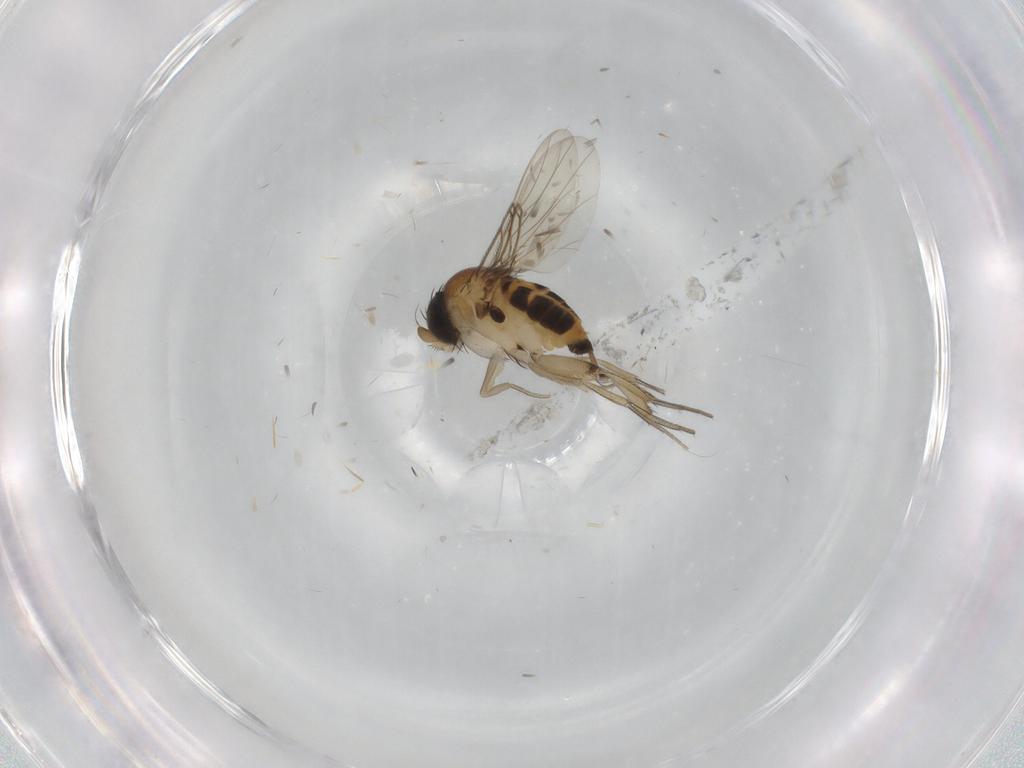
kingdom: Animalia
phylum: Arthropoda
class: Insecta
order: Diptera
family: Phoridae
